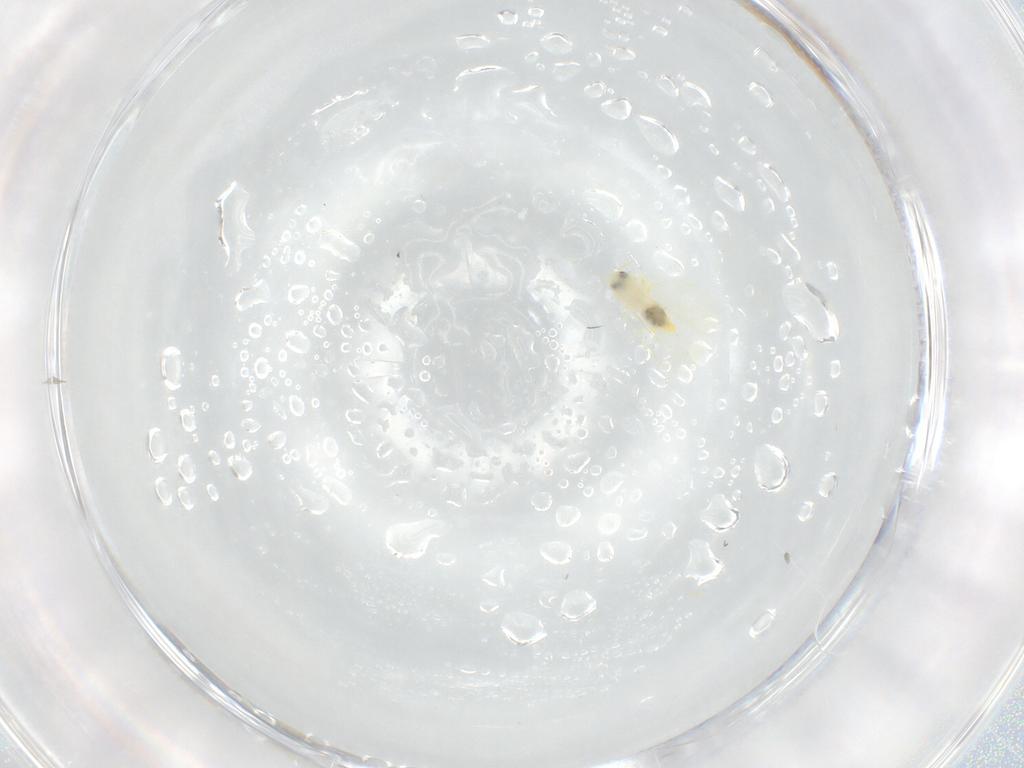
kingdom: Animalia
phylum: Arthropoda
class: Insecta
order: Hemiptera
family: Aleyrodidae
